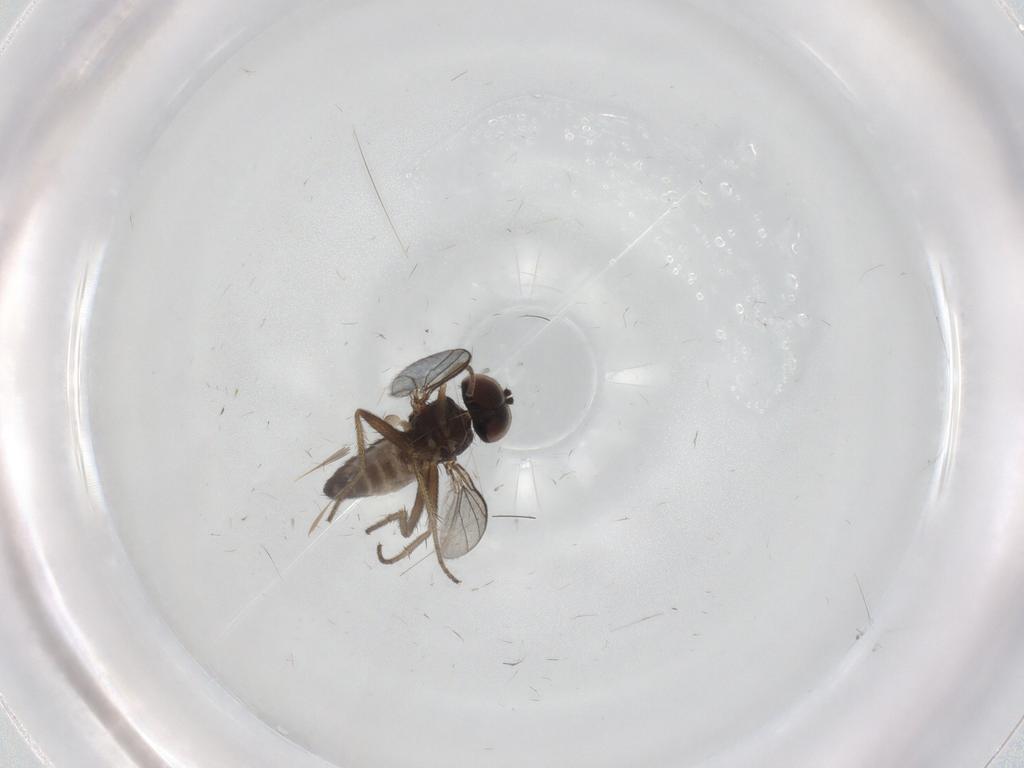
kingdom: Animalia
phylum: Arthropoda
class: Insecta
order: Diptera
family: Dolichopodidae
